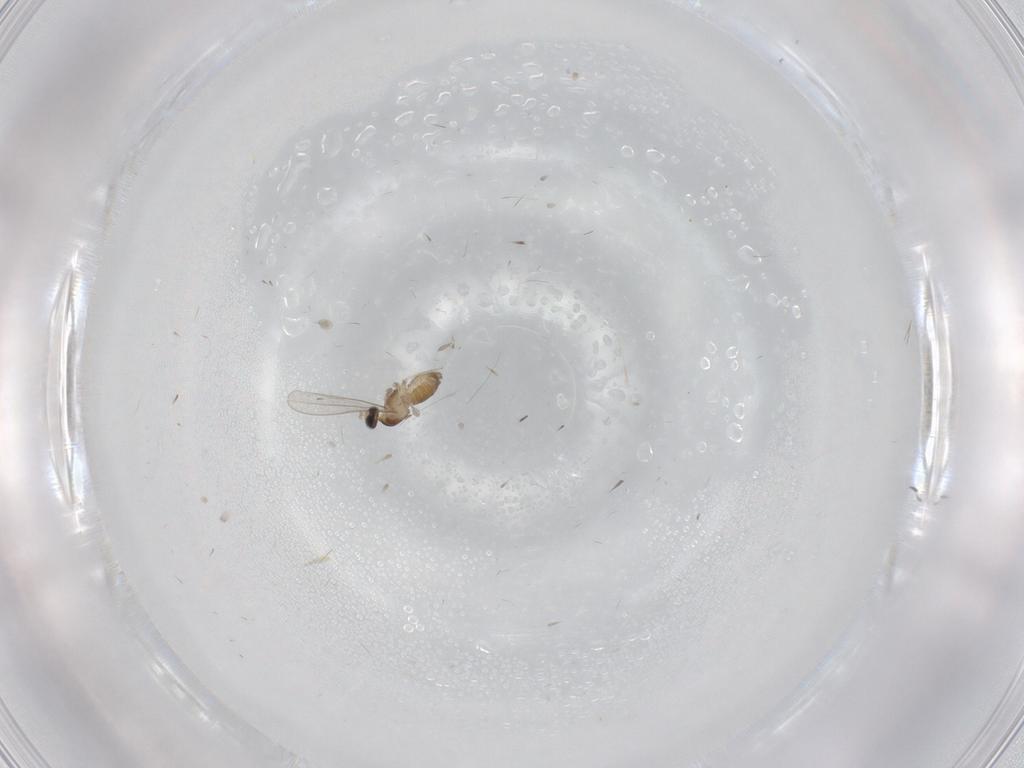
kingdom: Animalia
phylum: Arthropoda
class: Insecta
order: Diptera
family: Cecidomyiidae
